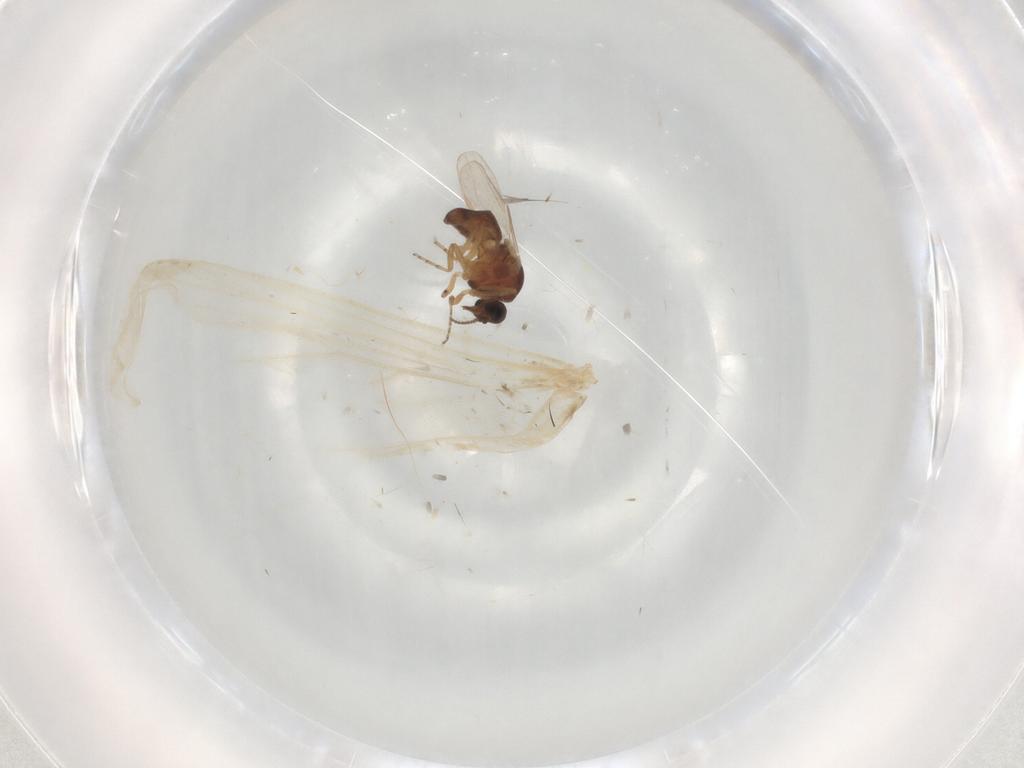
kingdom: Animalia
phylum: Arthropoda
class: Insecta
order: Diptera
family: Ceratopogonidae
